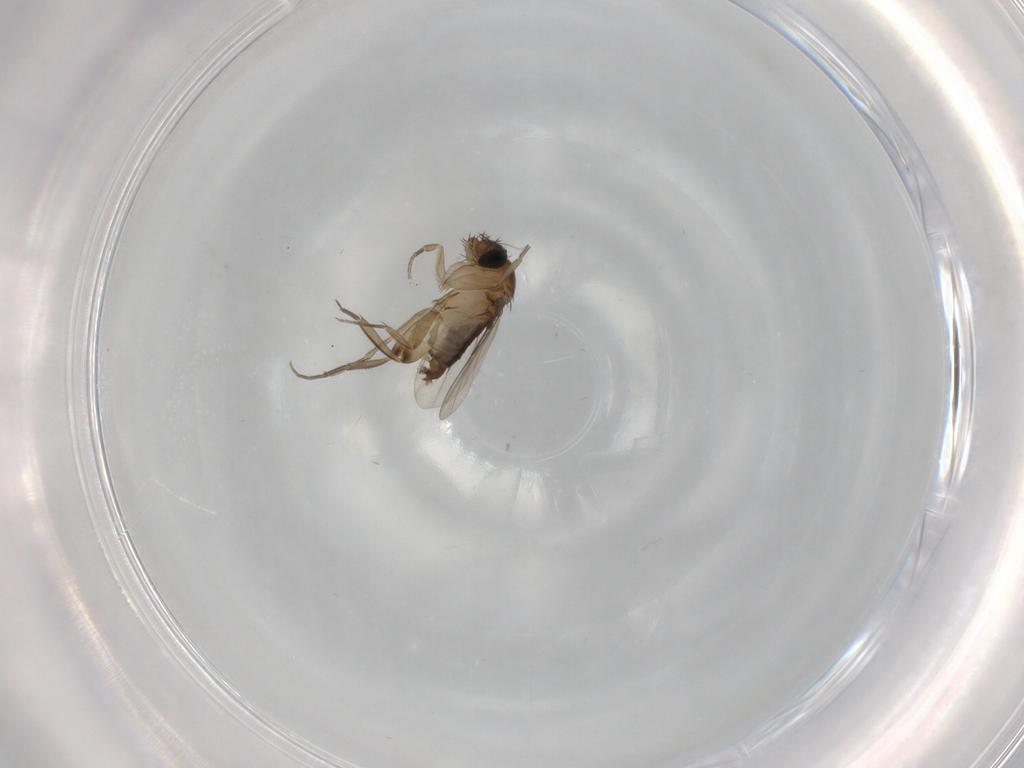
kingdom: Animalia
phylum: Arthropoda
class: Insecta
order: Diptera
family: Phoridae
